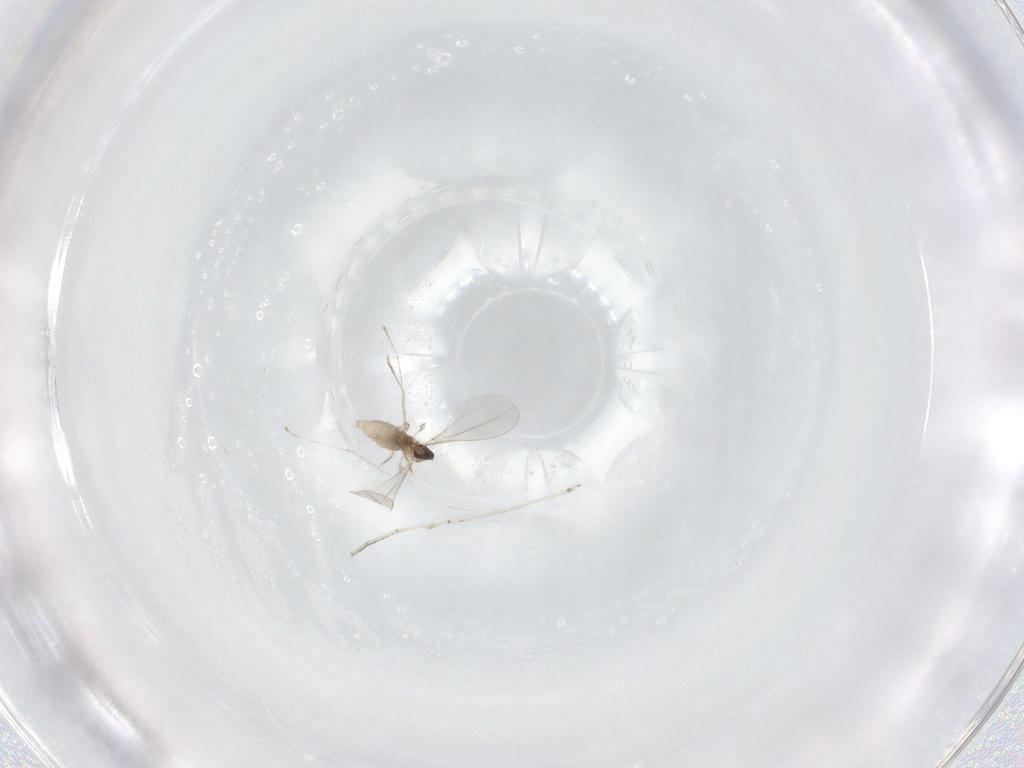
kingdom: Animalia
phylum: Arthropoda
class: Insecta
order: Diptera
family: Cecidomyiidae
